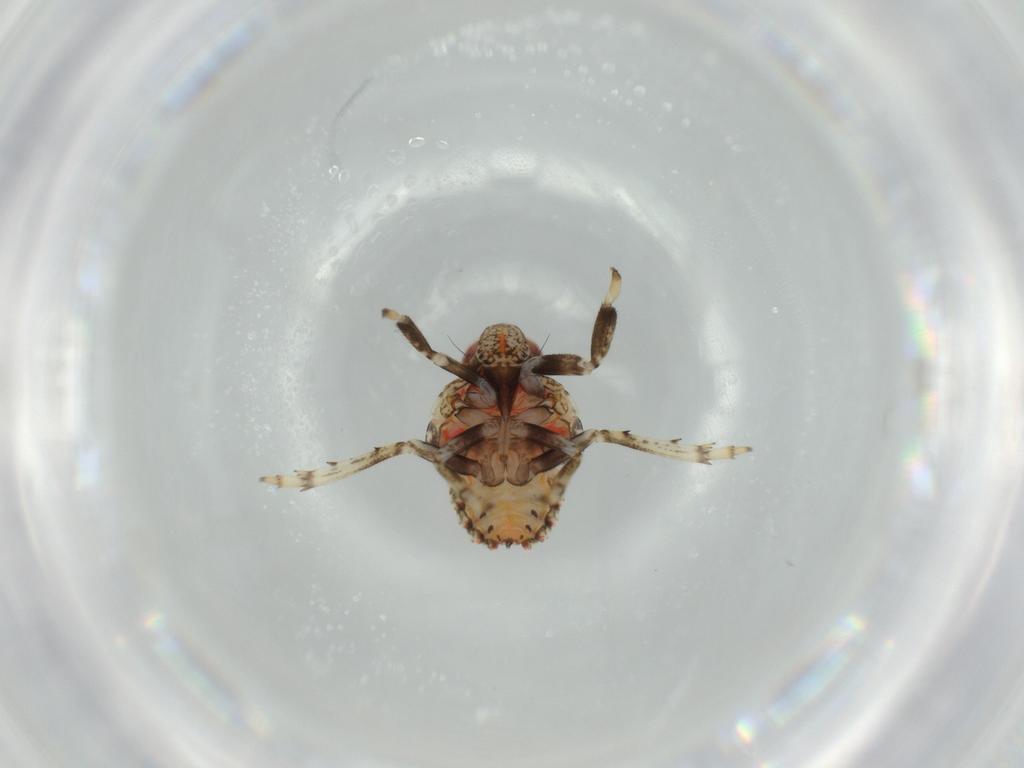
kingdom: Animalia
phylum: Arthropoda
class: Insecta
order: Hemiptera
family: Issidae
